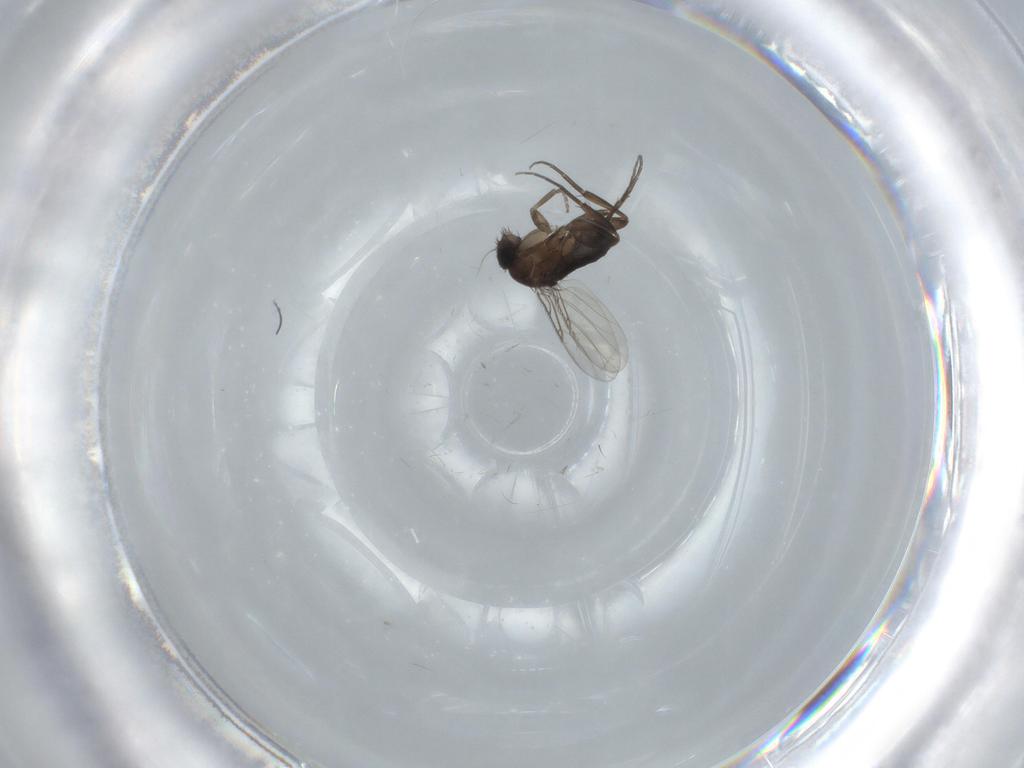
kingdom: Animalia
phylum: Arthropoda
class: Insecta
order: Diptera
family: Phoridae
